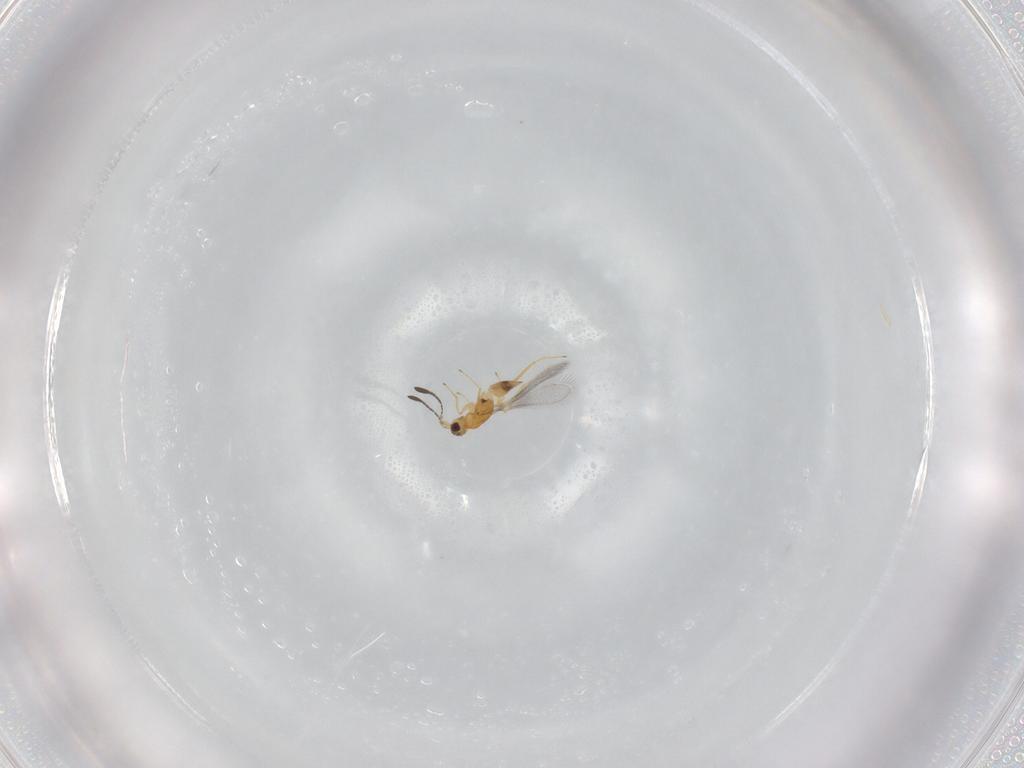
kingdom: Animalia
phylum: Arthropoda
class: Insecta
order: Hymenoptera
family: Mymaridae
